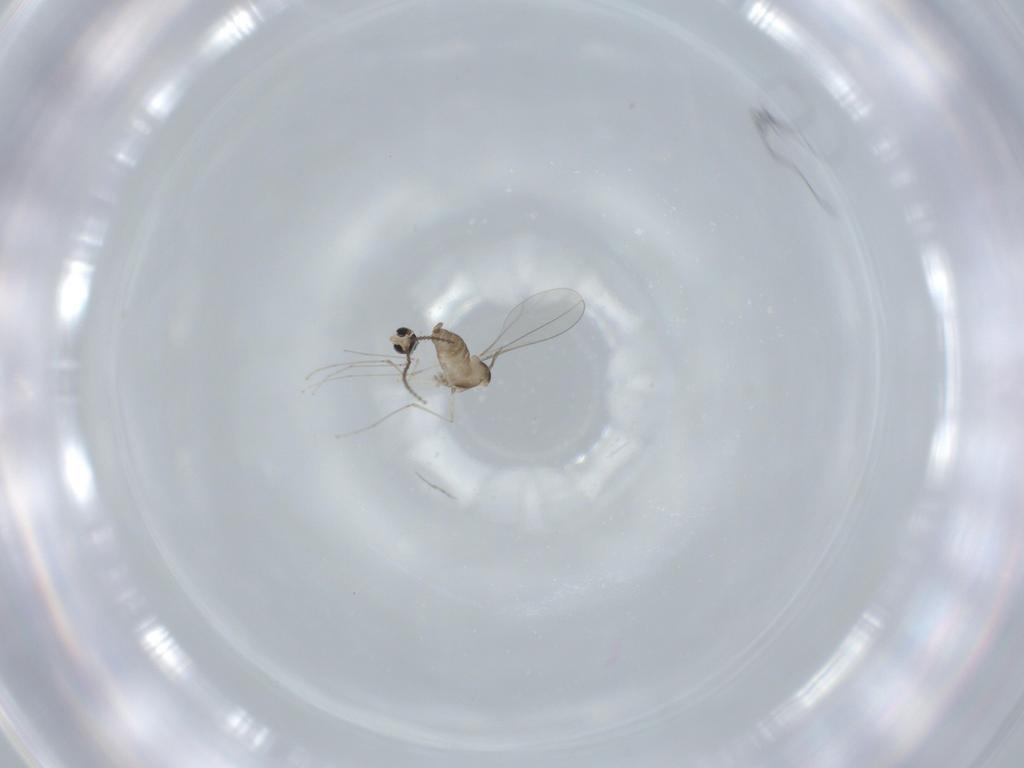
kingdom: Animalia
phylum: Arthropoda
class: Insecta
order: Diptera
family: Cecidomyiidae
